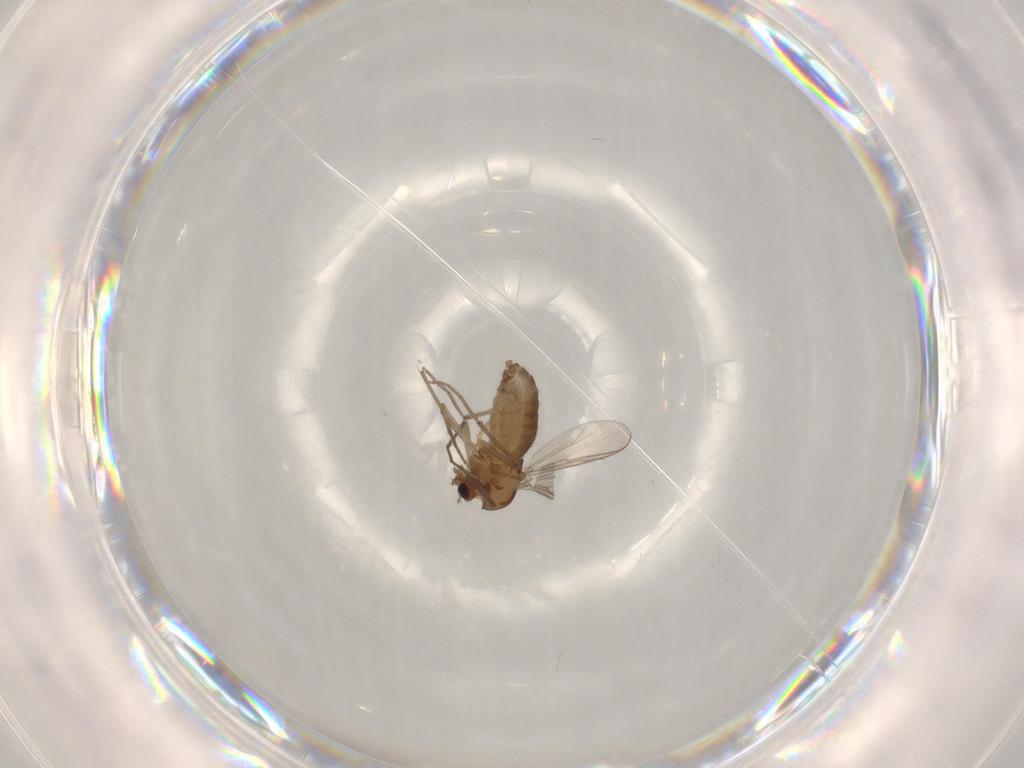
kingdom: Animalia
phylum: Arthropoda
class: Insecta
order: Diptera
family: Chironomidae
